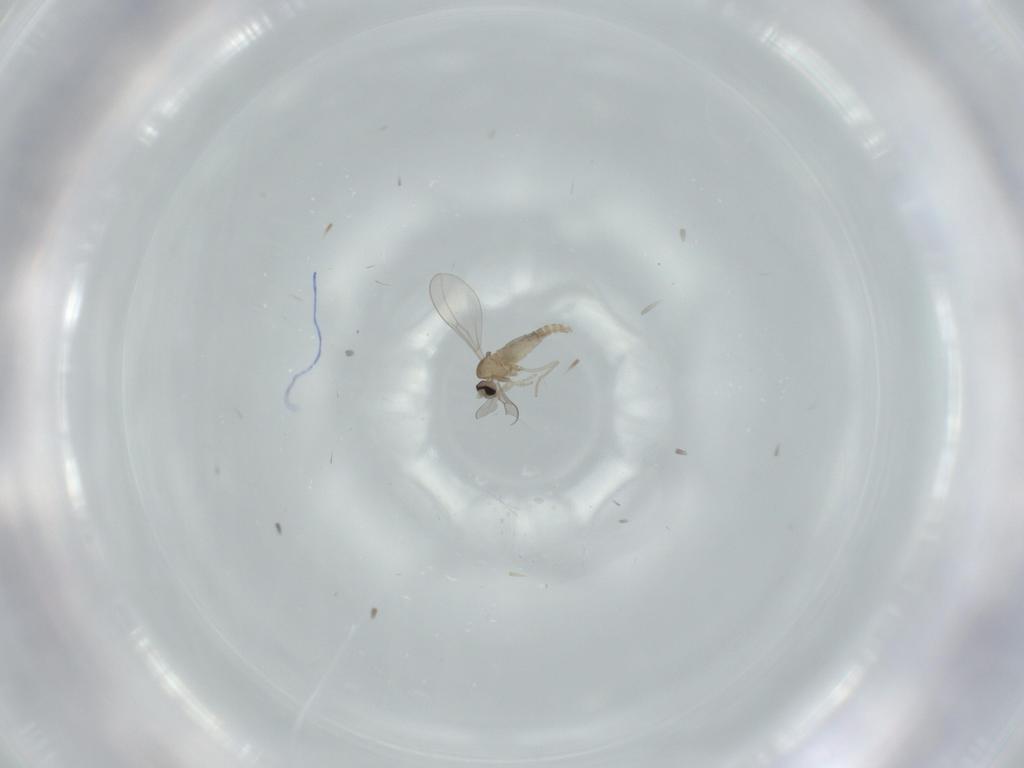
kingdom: Animalia
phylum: Arthropoda
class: Insecta
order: Diptera
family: Cecidomyiidae
